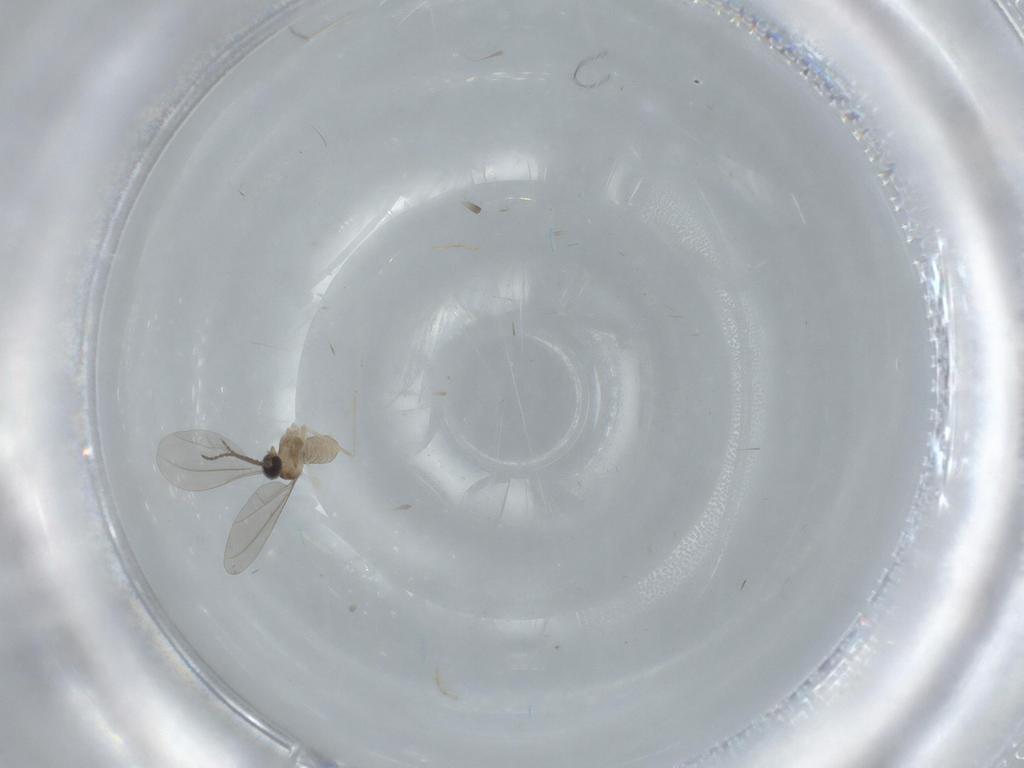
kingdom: Animalia
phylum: Arthropoda
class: Insecta
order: Diptera
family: Cecidomyiidae
